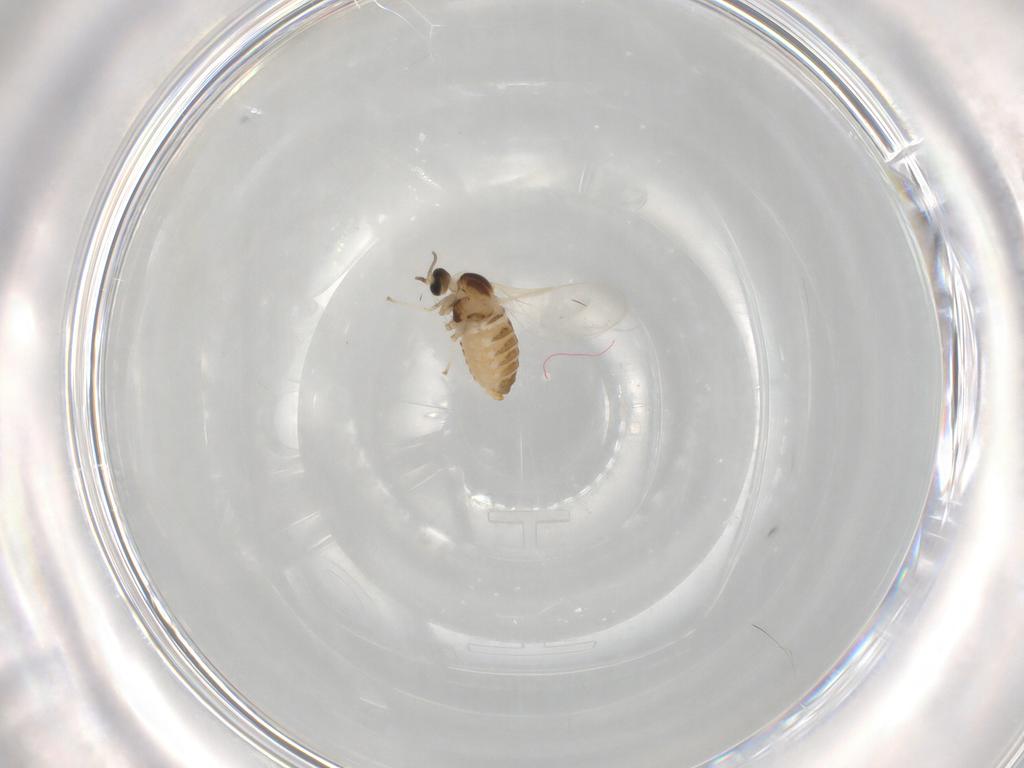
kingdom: Animalia
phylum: Arthropoda
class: Insecta
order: Diptera
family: Cecidomyiidae
